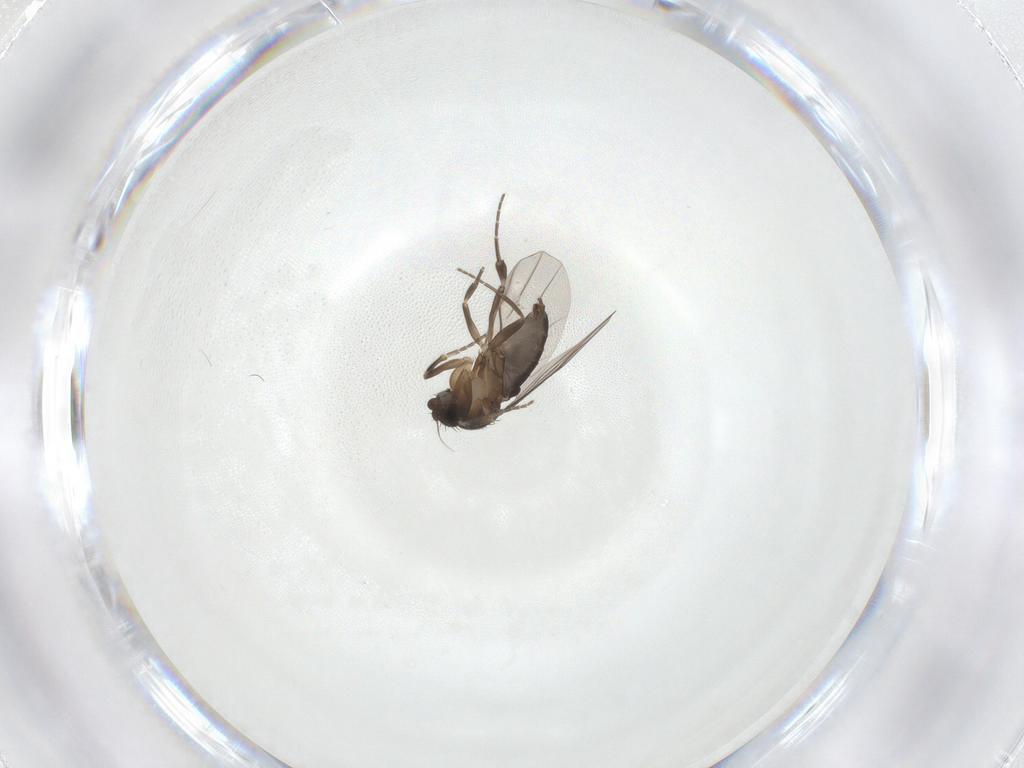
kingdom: Animalia
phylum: Arthropoda
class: Insecta
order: Diptera
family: Phoridae
